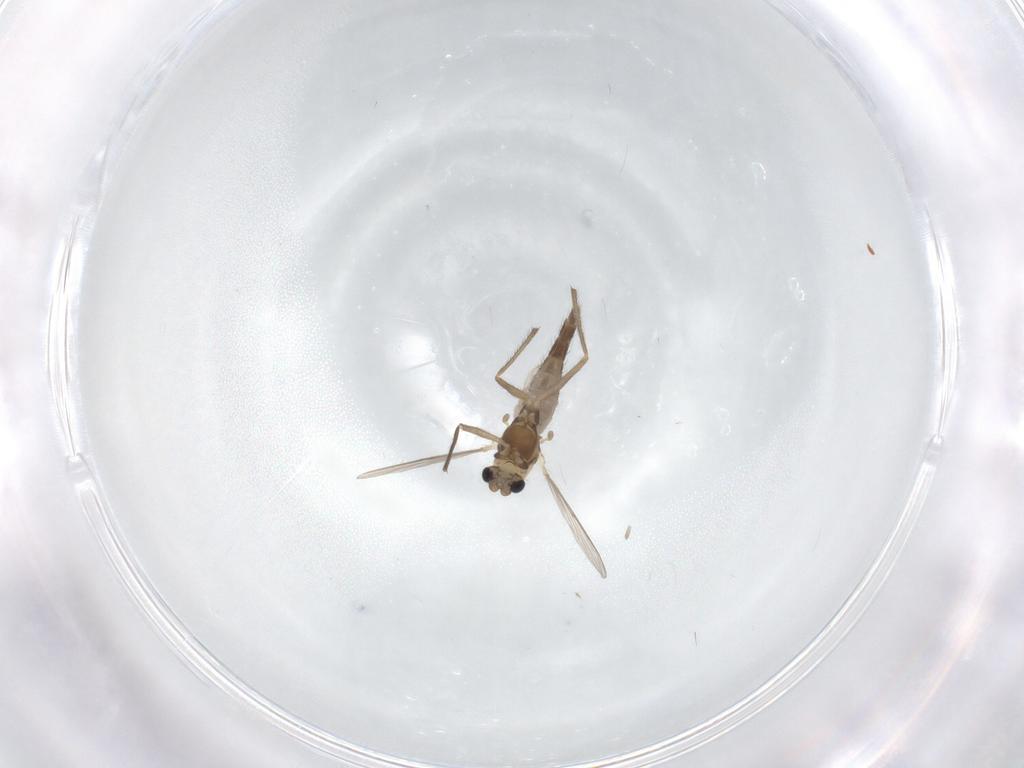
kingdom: Animalia
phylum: Arthropoda
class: Insecta
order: Diptera
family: Chironomidae
